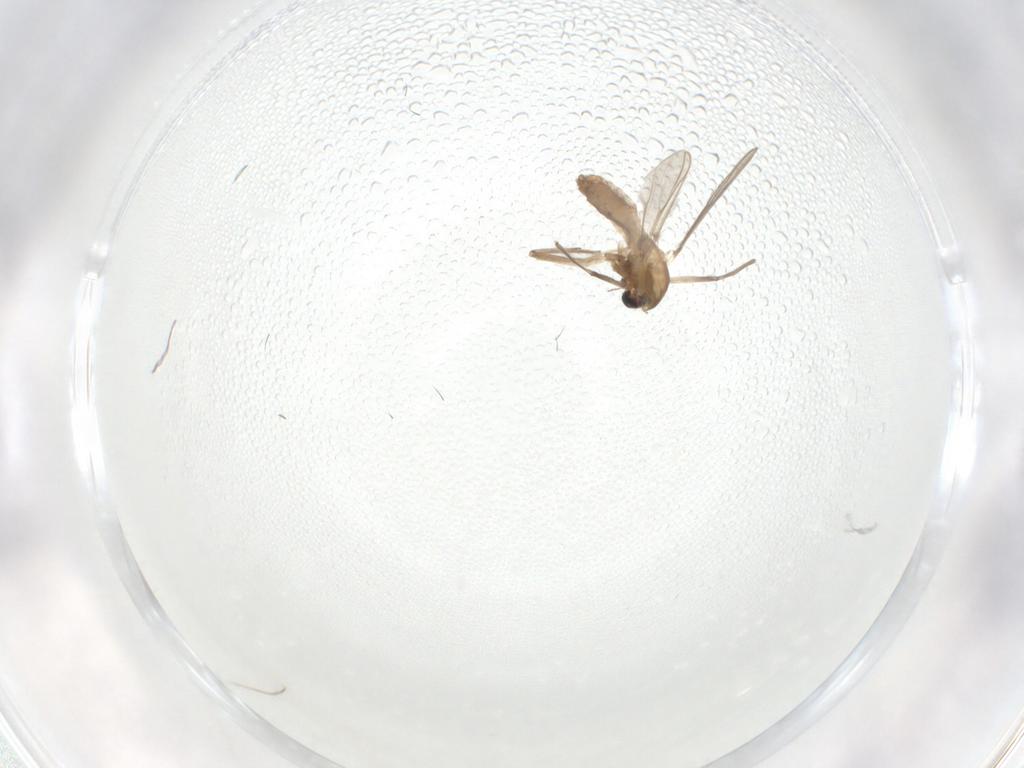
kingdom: Animalia
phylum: Arthropoda
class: Insecta
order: Diptera
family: Chironomidae
